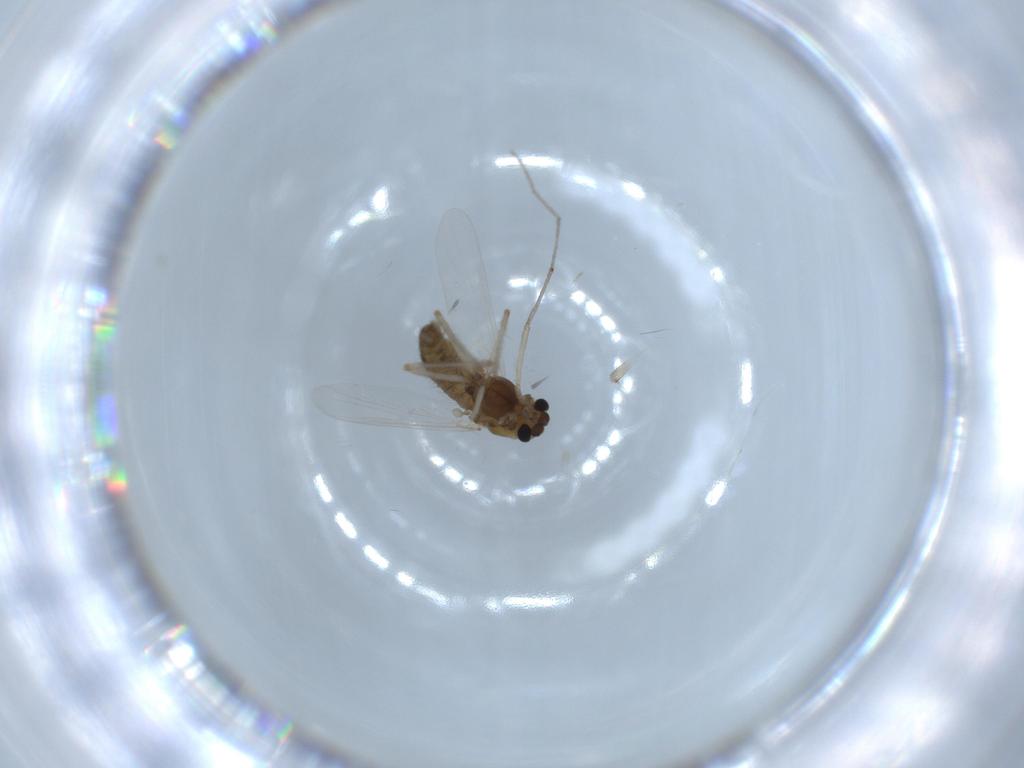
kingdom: Animalia
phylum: Arthropoda
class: Insecta
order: Diptera
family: Chironomidae
